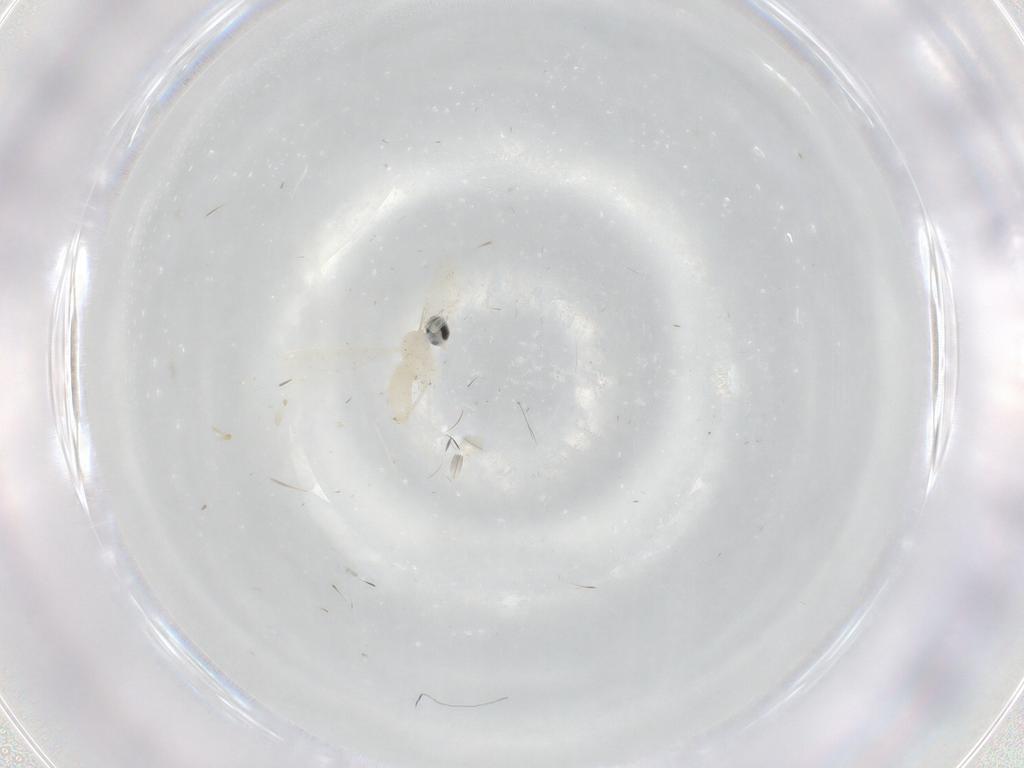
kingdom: Animalia
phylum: Arthropoda
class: Insecta
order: Diptera
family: Cecidomyiidae
